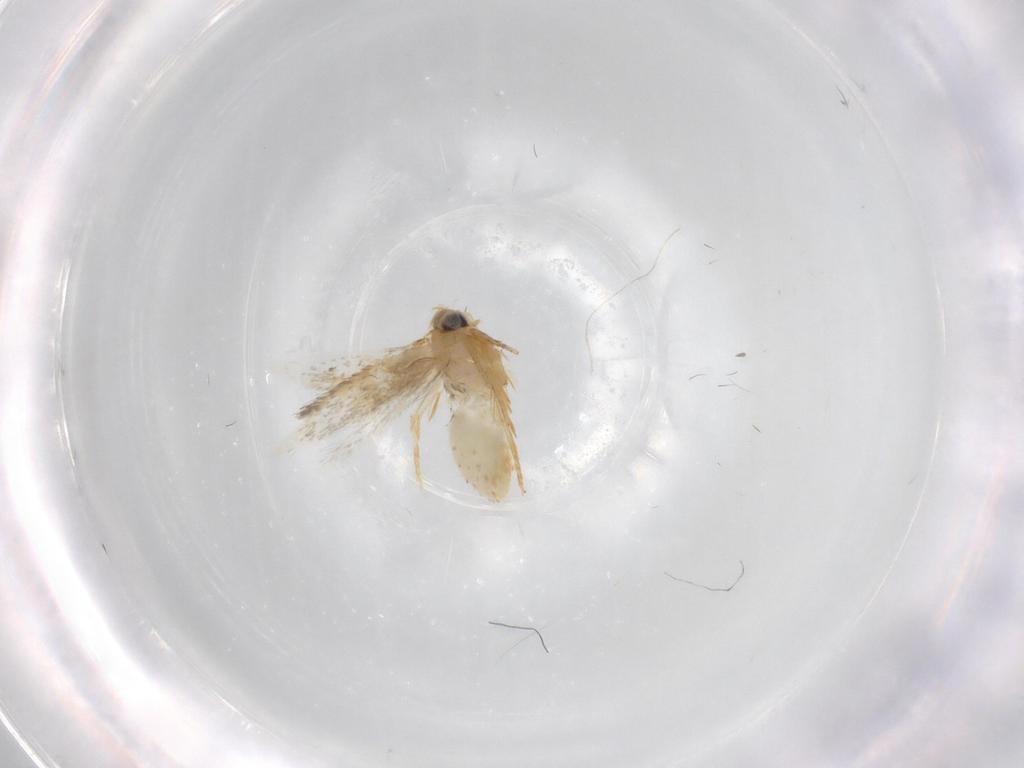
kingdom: Animalia
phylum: Arthropoda
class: Insecta
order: Lepidoptera
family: Nepticulidae
